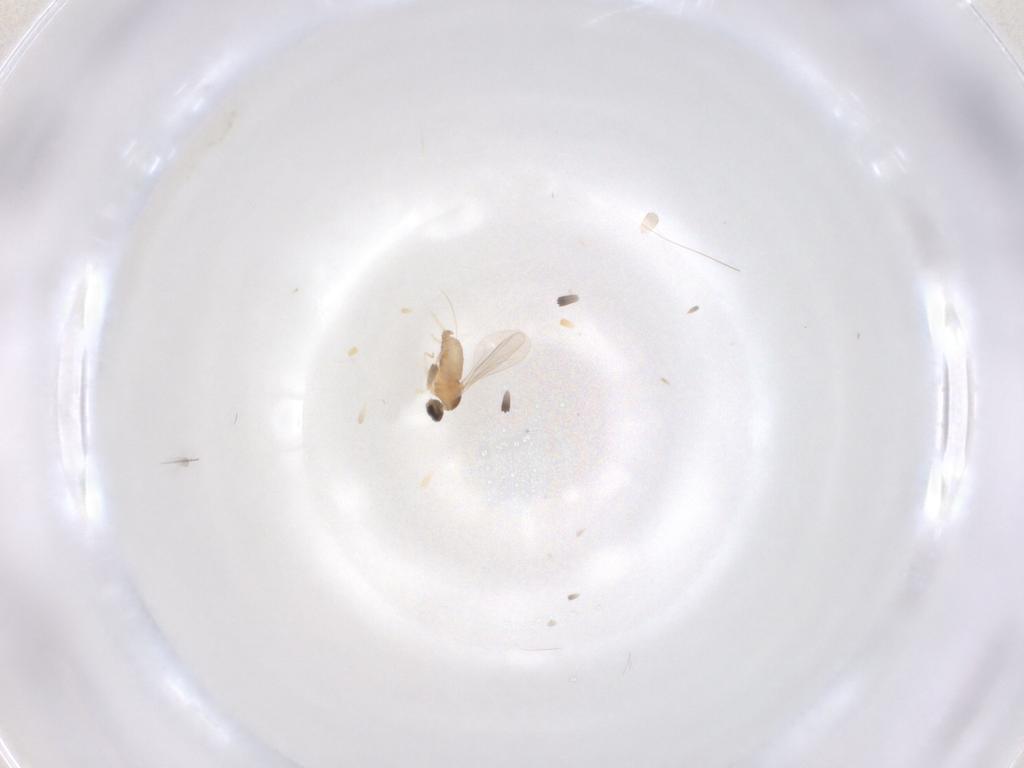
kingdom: Animalia
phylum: Arthropoda
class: Insecta
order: Diptera
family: Cecidomyiidae
